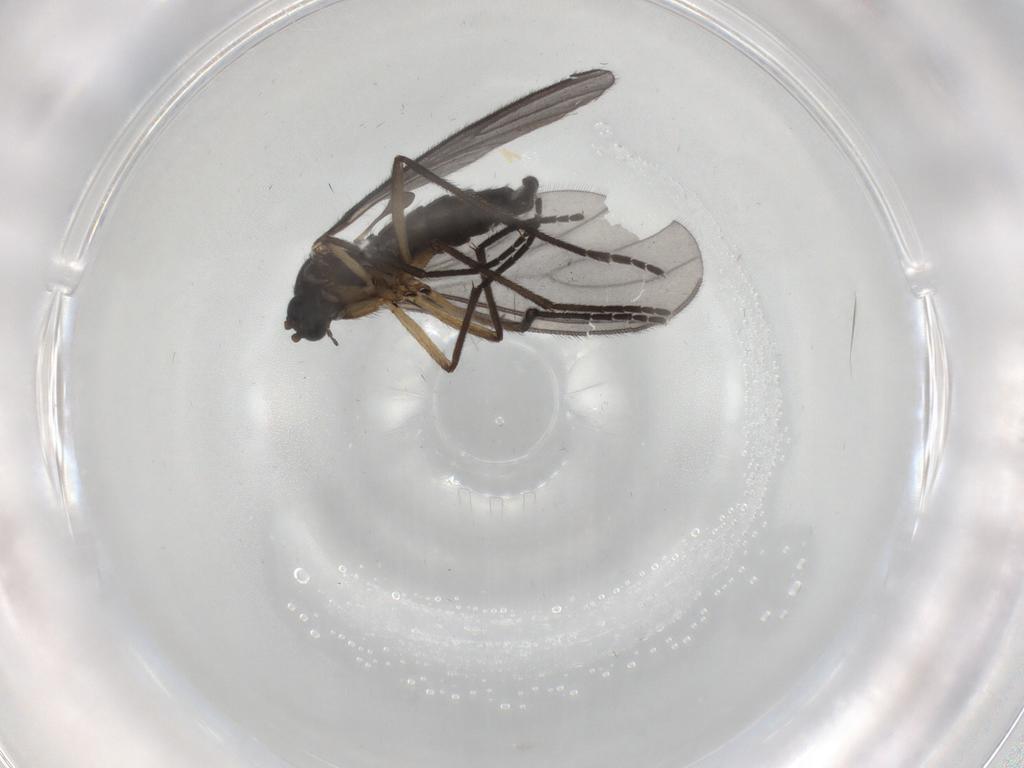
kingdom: Animalia
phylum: Arthropoda
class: Insecta
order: Diptera
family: Sciaridae
